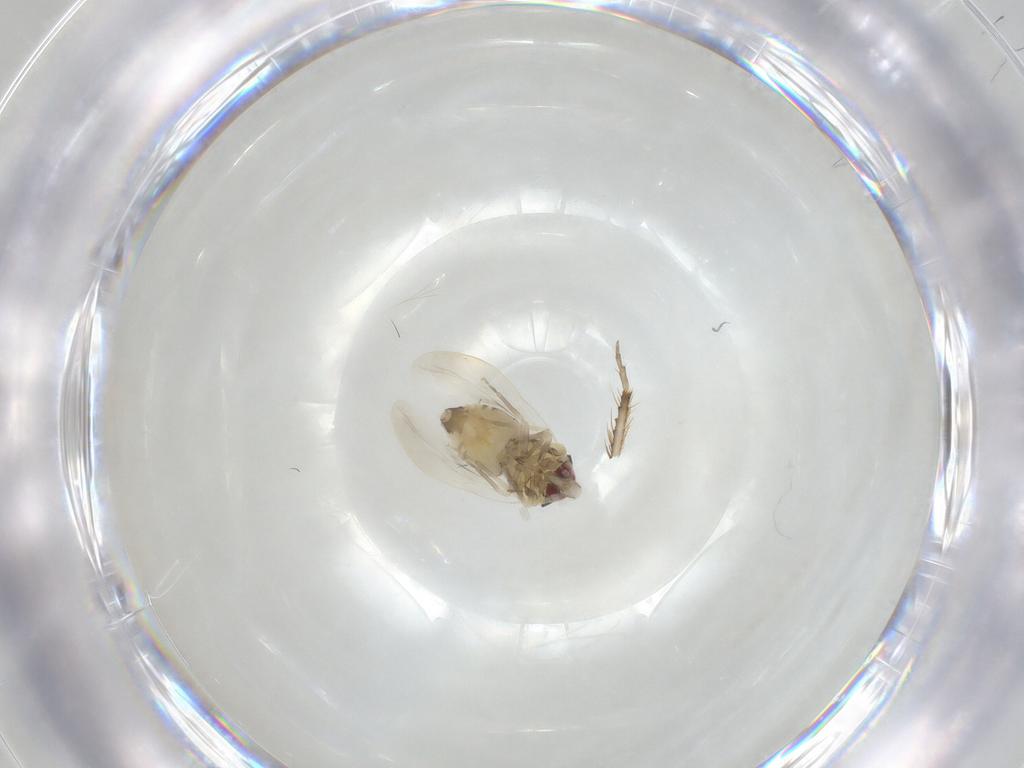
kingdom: Animalia
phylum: Arthropoda
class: Insecta
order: Hemiptera
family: Cicadellidae
